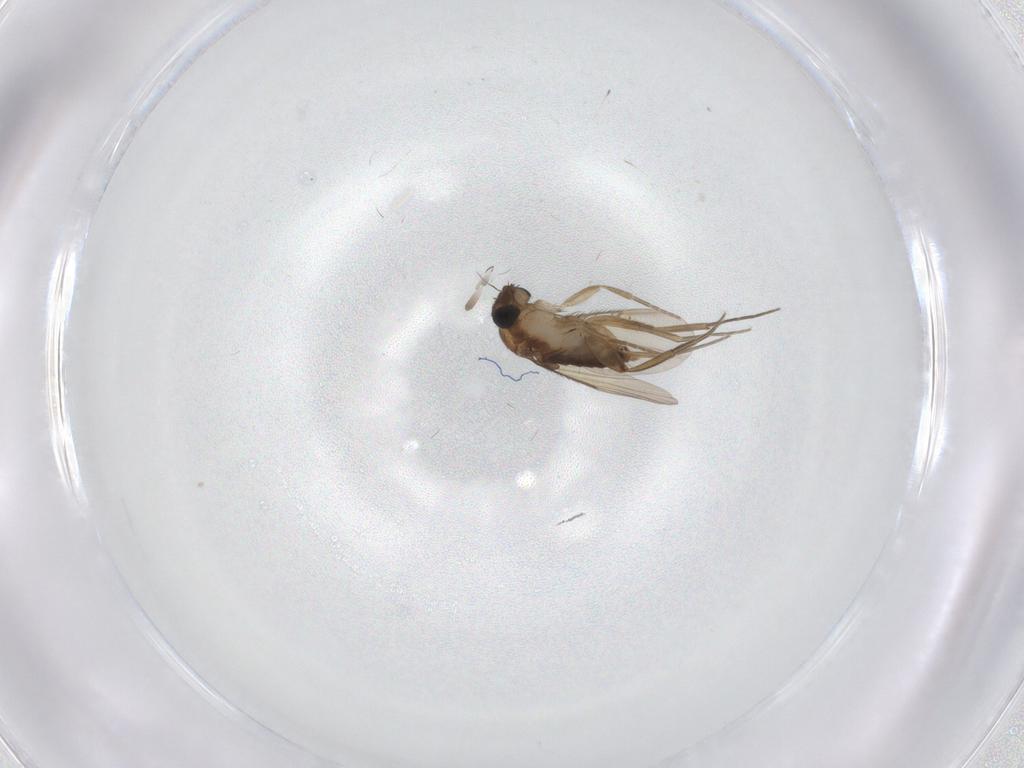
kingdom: Animalia
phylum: Arthropoda
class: Insecta
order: Diptera
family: Phoridae
